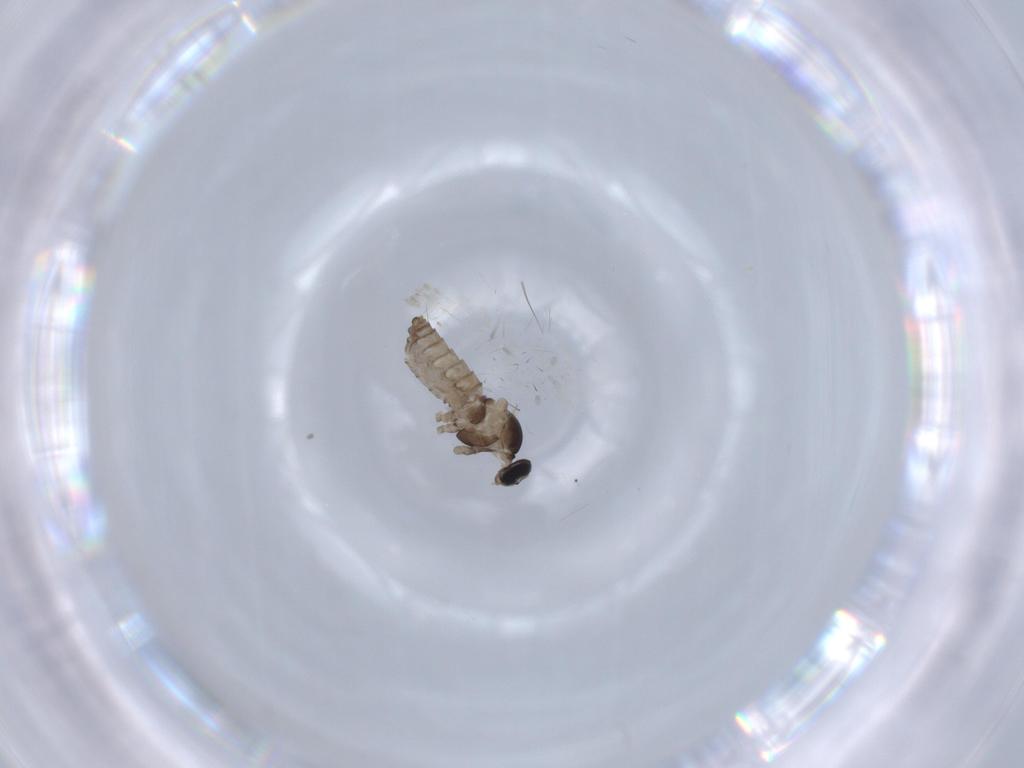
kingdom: Animalia
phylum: Arthropoda
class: Insecta
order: Diptera
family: Cecidomyiidae
